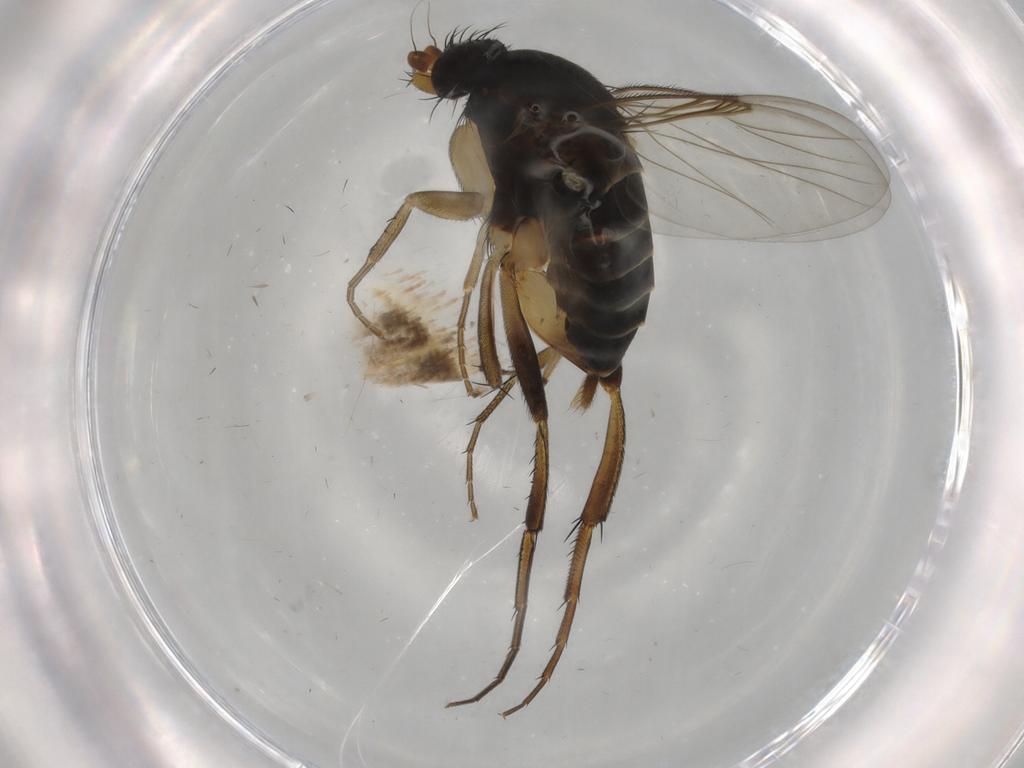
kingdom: Animalia
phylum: Arthropoda
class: Insecta
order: Diptera
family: Phoridae
